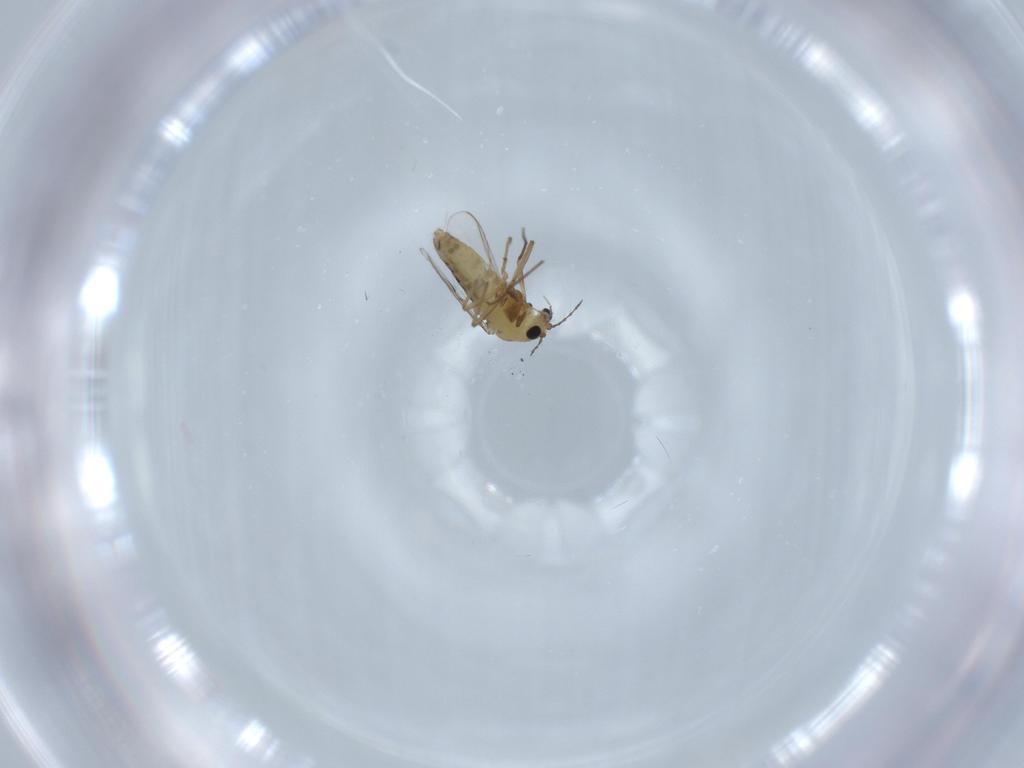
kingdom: Animalia
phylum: Arthropoda
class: Insecta
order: Diptera
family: Chironomidae
